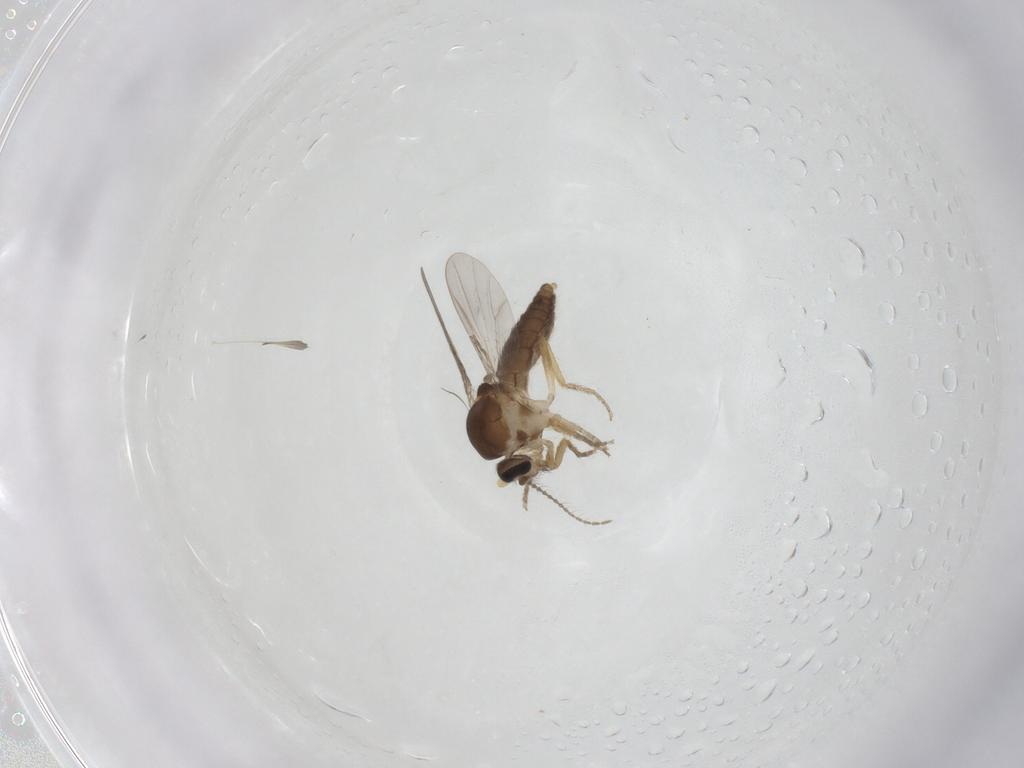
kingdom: Animalia
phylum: Arthropoda
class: Insecta
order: Diptera
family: Ceratopogonidae
